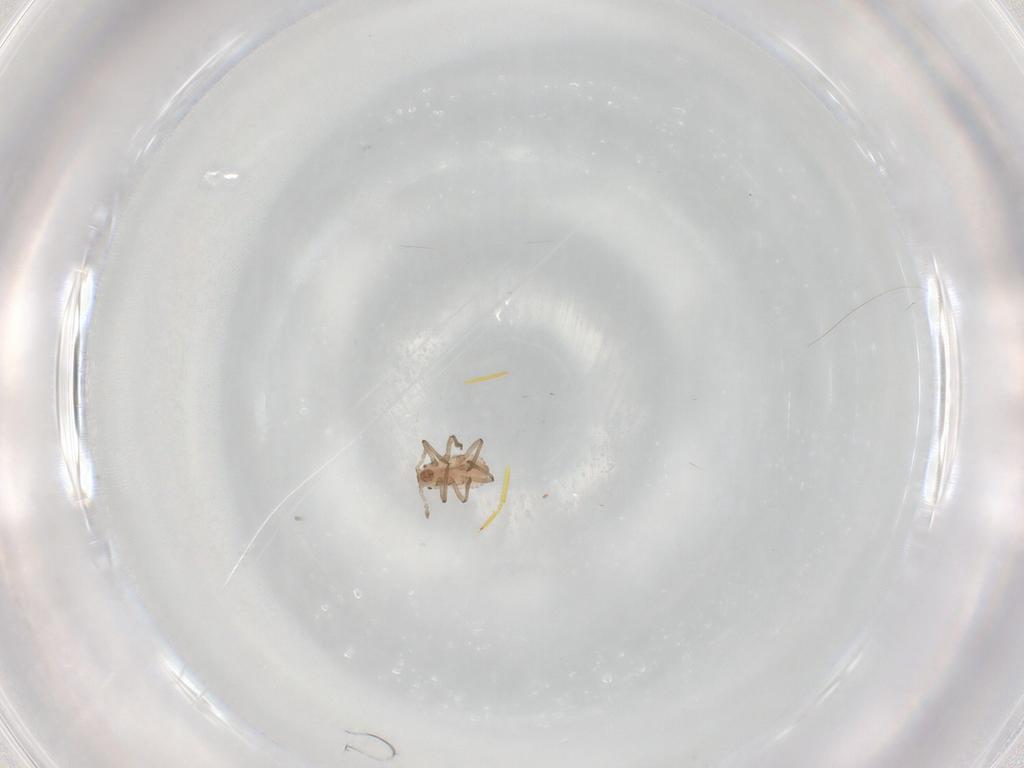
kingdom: Animalia
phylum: Arthropoda
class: Insecta
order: Hemiptera
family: Aphididae
